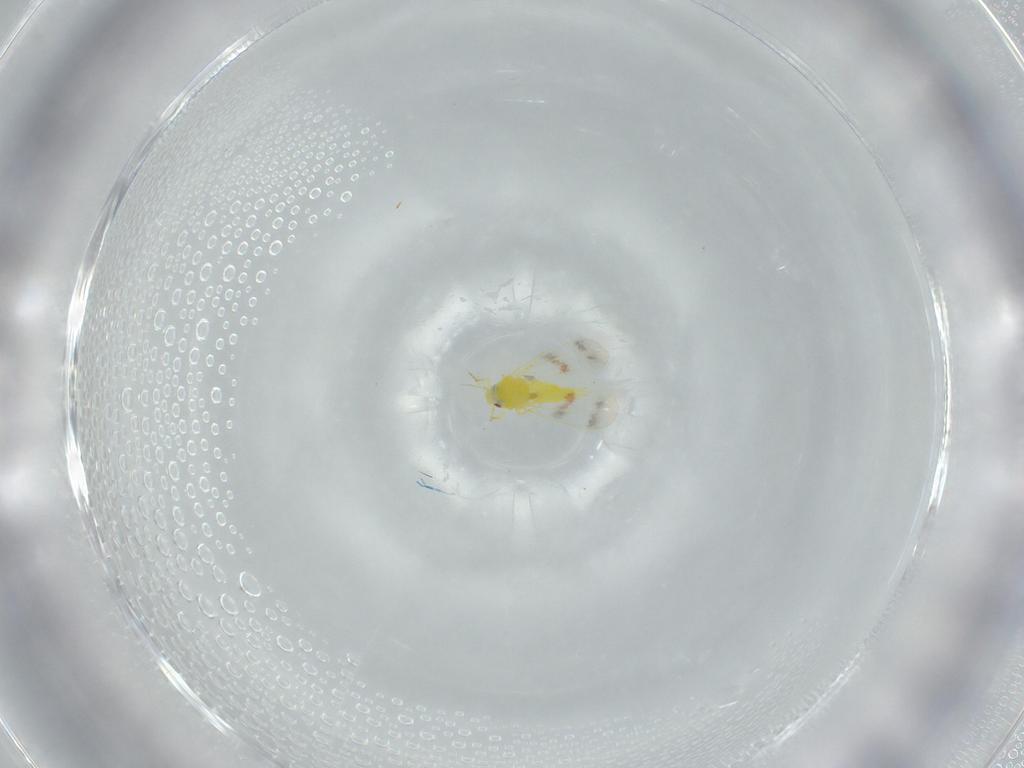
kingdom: Animalia
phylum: Arthropoda
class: Insecta
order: Hemiptera
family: Aleyrodidae
